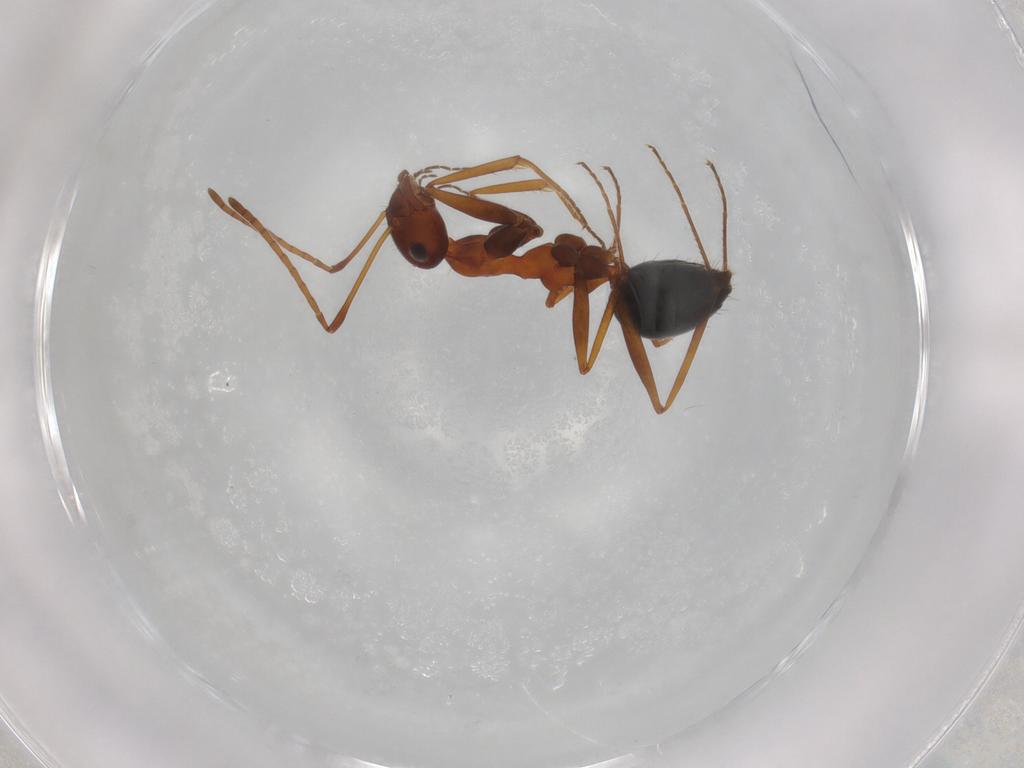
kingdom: Animalia
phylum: Arthropoda
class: Insecta
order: Hymenoptera
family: Formicidae
